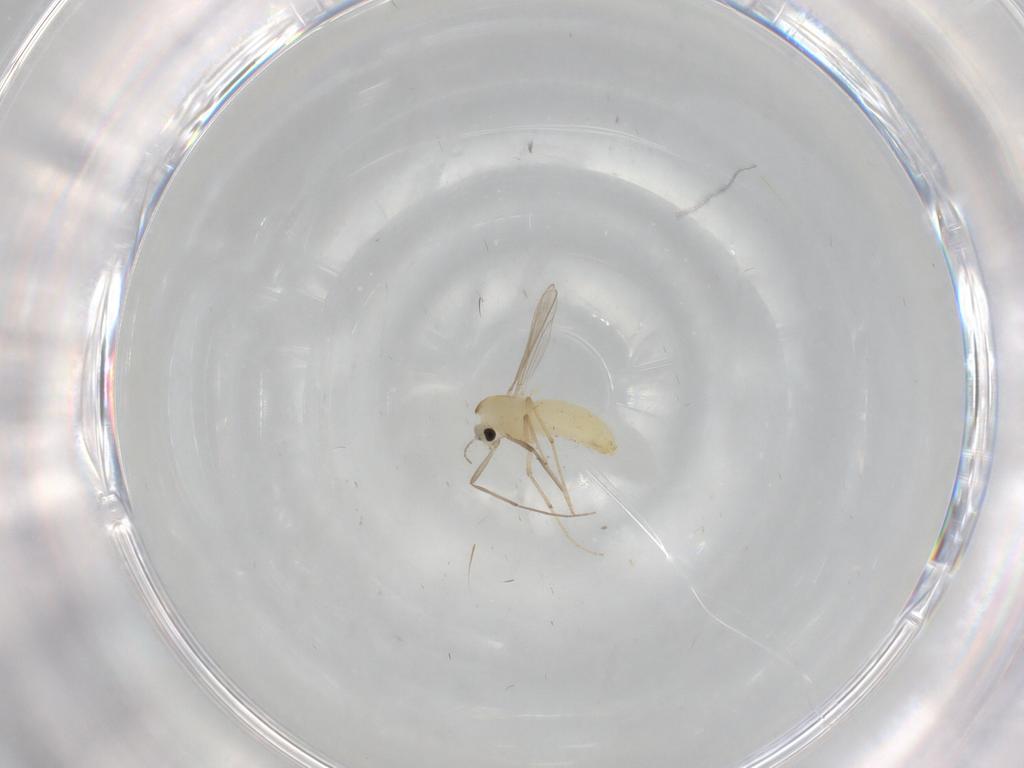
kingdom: Animalia
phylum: Arthropoda
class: Insecta
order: Diptera
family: Chironomidae
